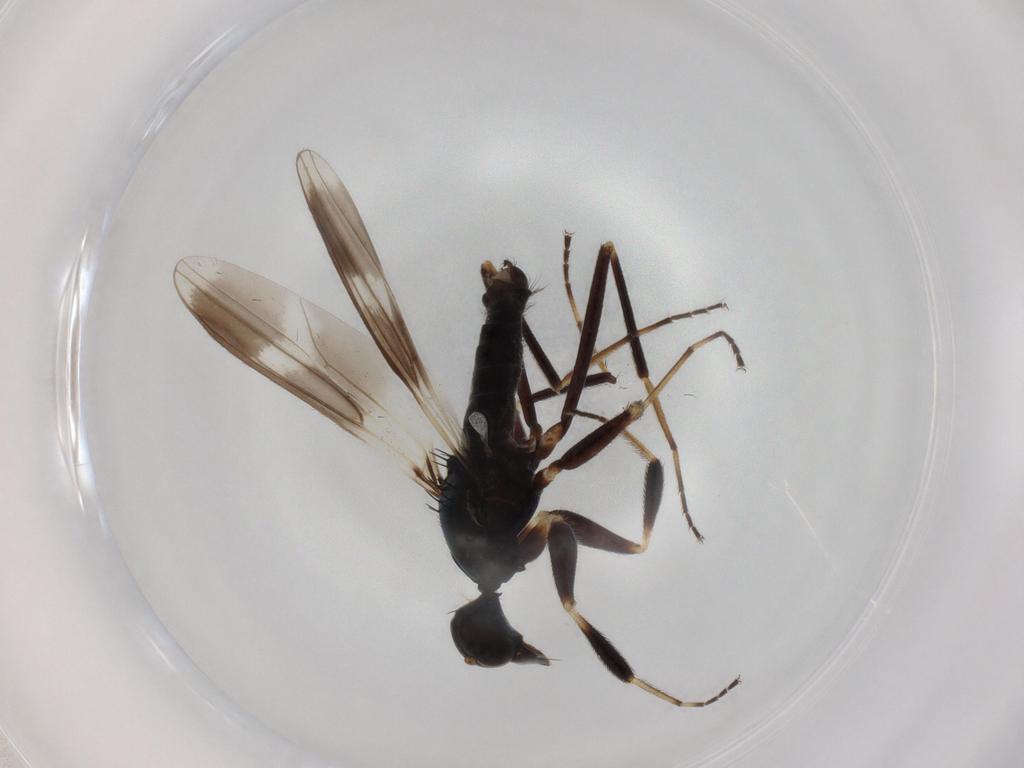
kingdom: Animalia
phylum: Arthropoda
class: Insecta
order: Diptera
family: Hybotidae
